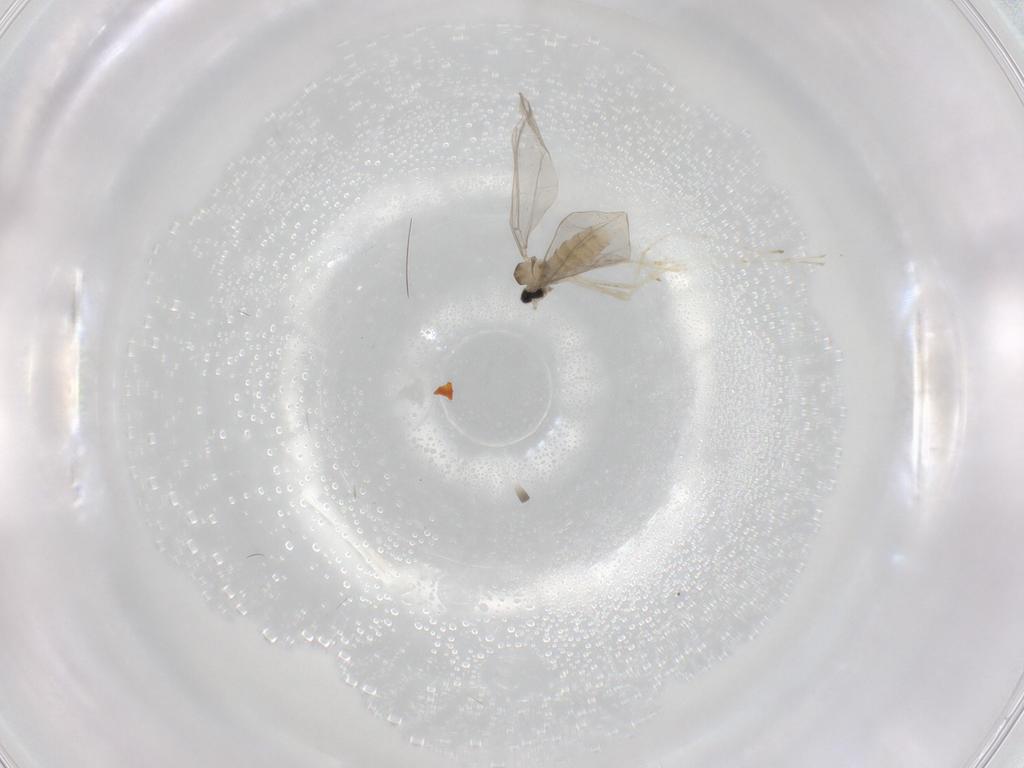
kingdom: Animalia
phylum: Arthropoda
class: Insecta
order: Diptera
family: Cecidomyiidae
